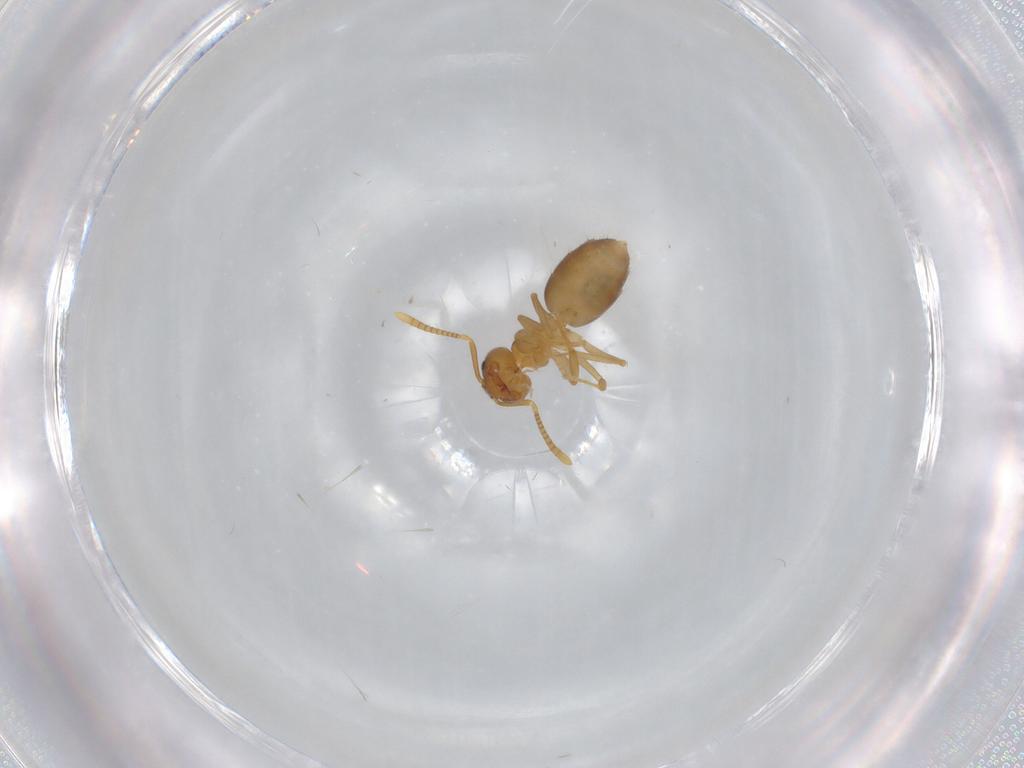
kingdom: Animalia
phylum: Arthropoda
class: Insecta
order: Hymenoptera
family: Formicidae
